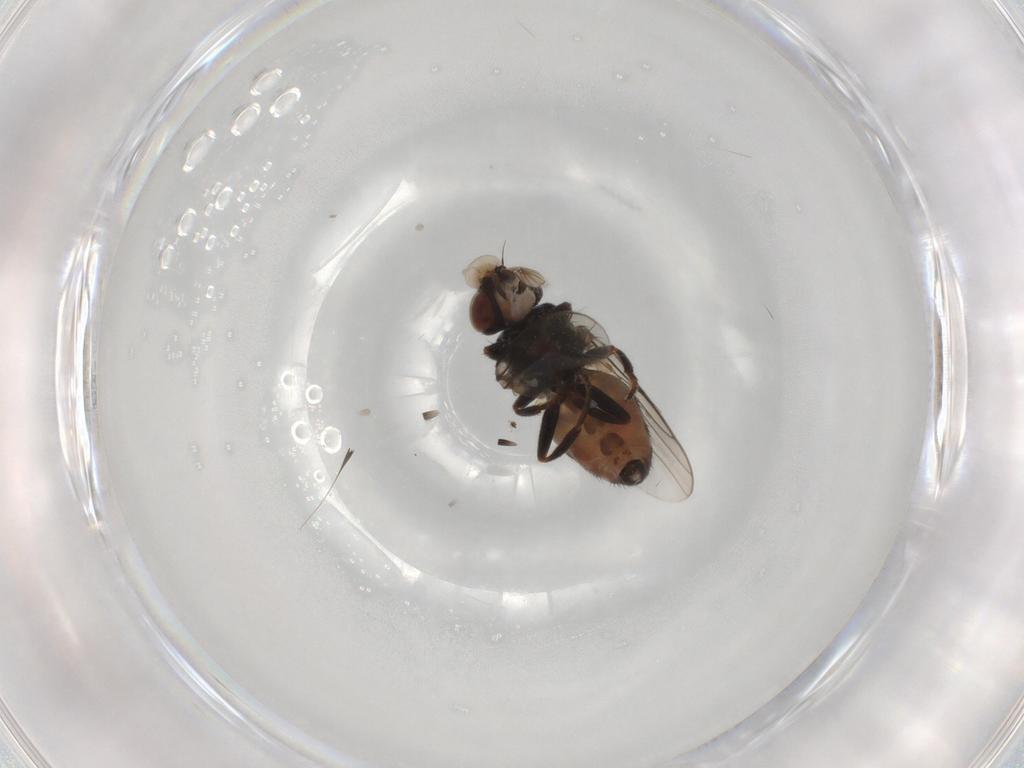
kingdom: Animalia
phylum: Arthropoda
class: Insecta
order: Diptera
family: Chloropidae
